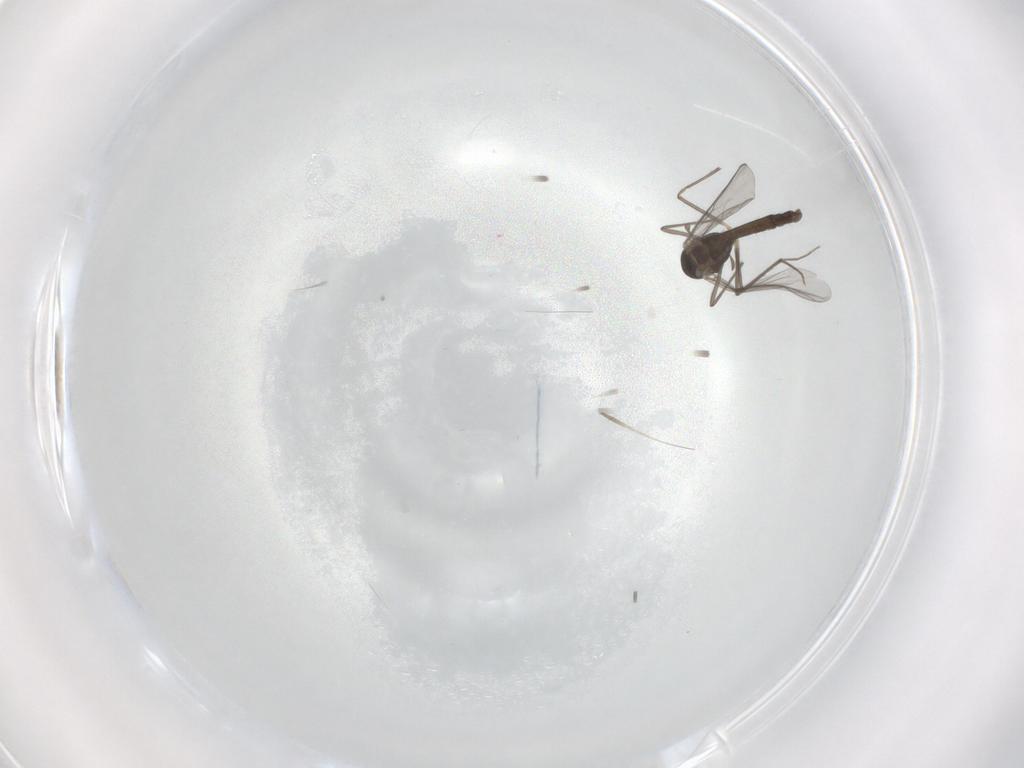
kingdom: Animalia
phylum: Arthropoda
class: Insecta
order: Diptera
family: Chironomidae
